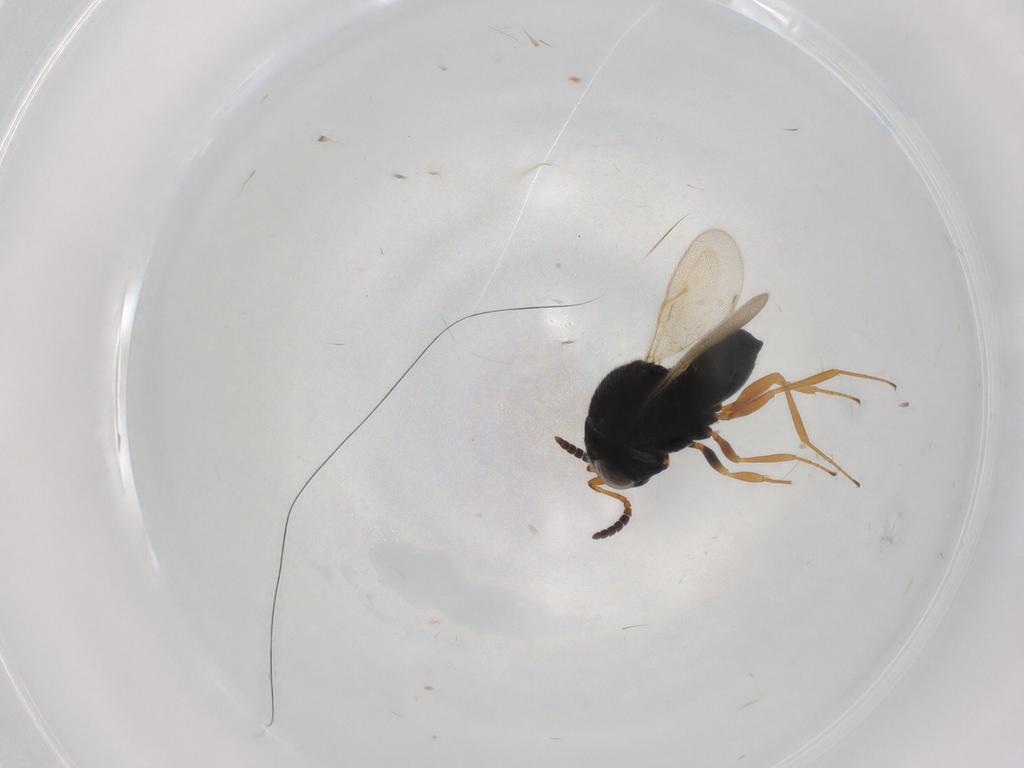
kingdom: Animalia
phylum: Arthropoda
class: Insecta
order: Hymenoptera
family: Scelionidae
